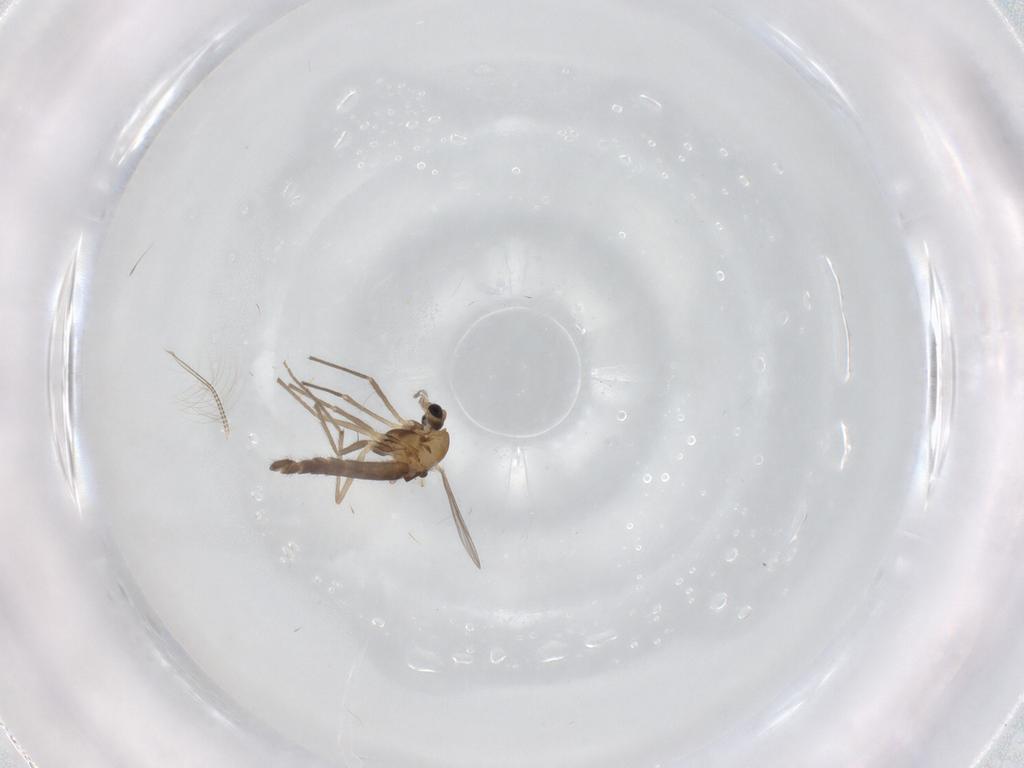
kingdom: Animalia
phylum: Arthropoda
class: Insecta
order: Diptera
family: Chironomidae
